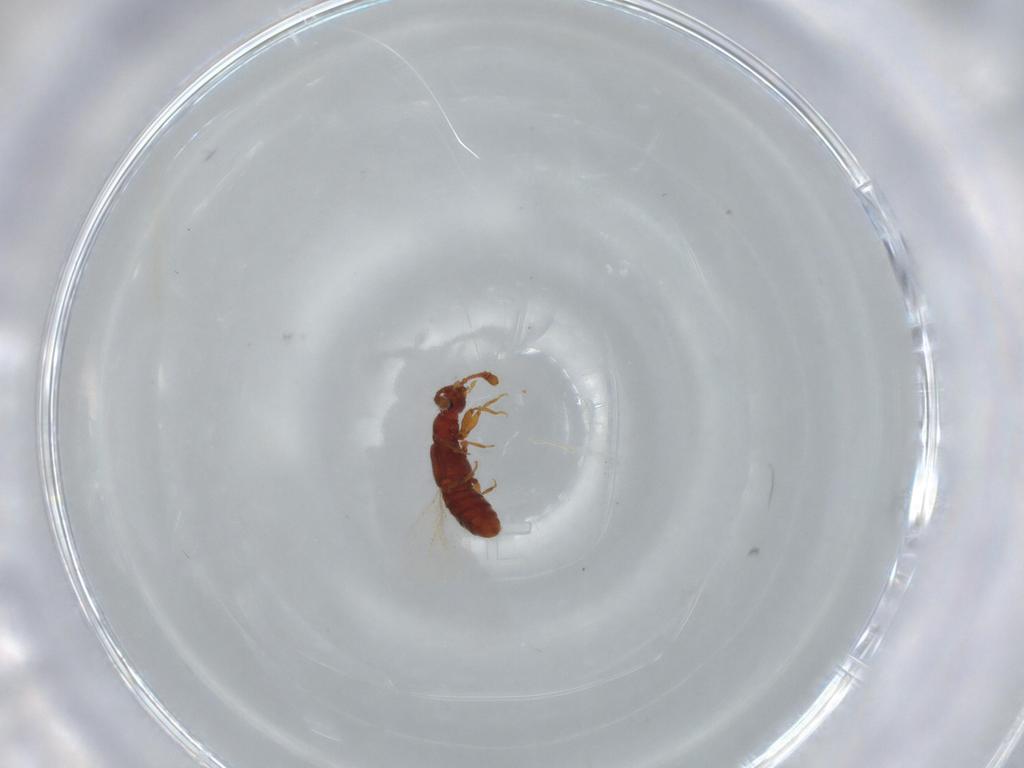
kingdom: Animalia
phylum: Arthropoda
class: Insecta
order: Coleoptera
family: Staphylinidae
